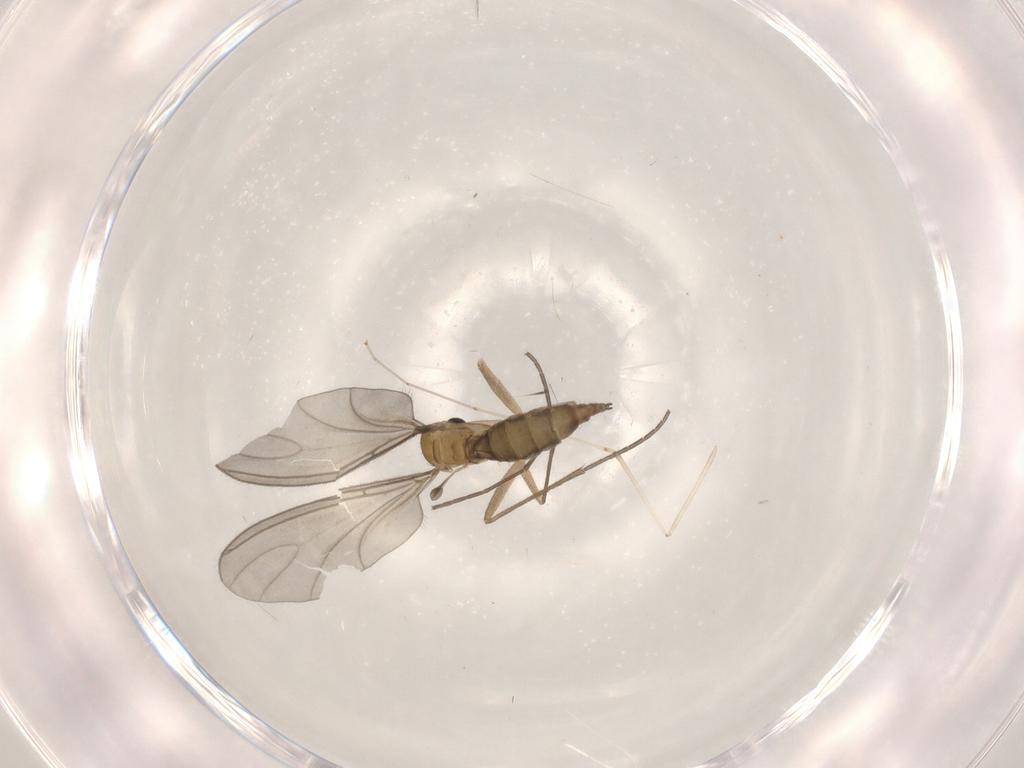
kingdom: Animalia
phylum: Arthropoda
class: Insecta
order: Diptera
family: Sciaridae
